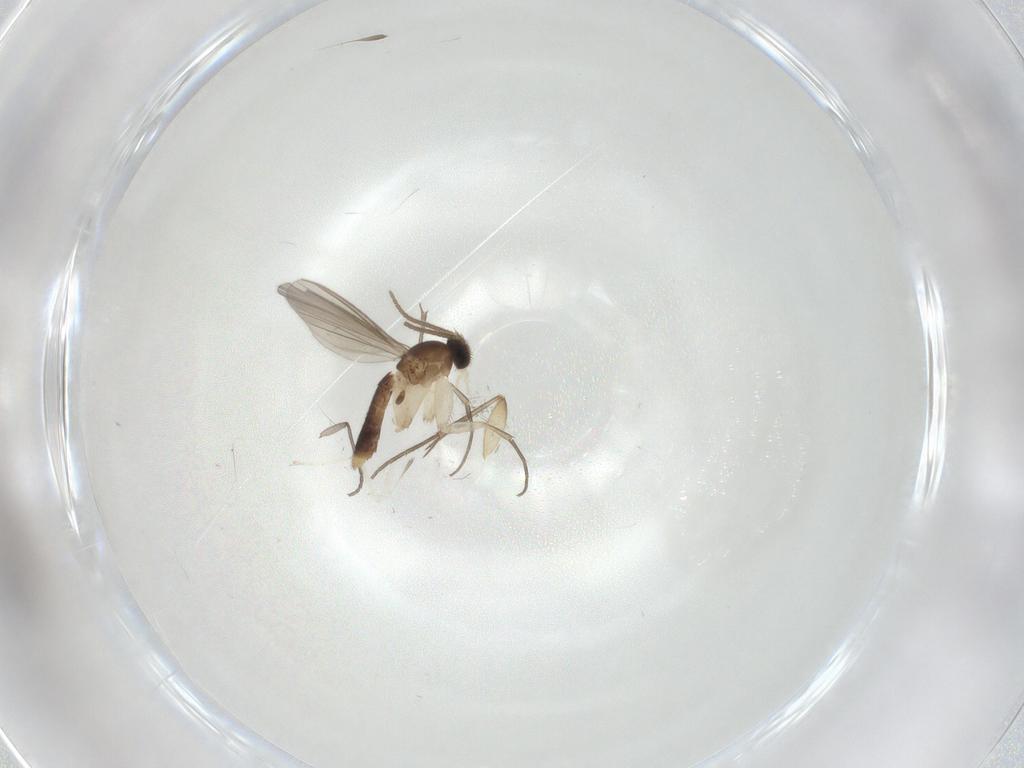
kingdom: Animalia
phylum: Arthropoda
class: Insecta
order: Diptera
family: Mycetophilidae
